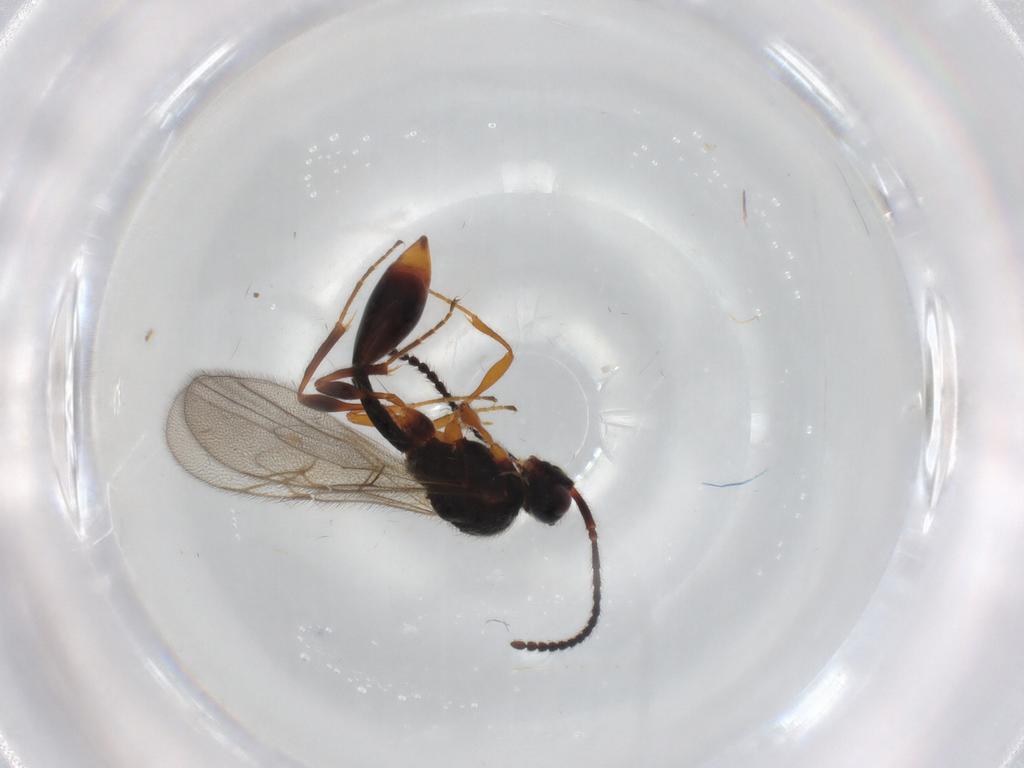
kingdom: Animalia
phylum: Arthropoda
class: Insecta
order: Hymenoptera
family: Diapriidae
